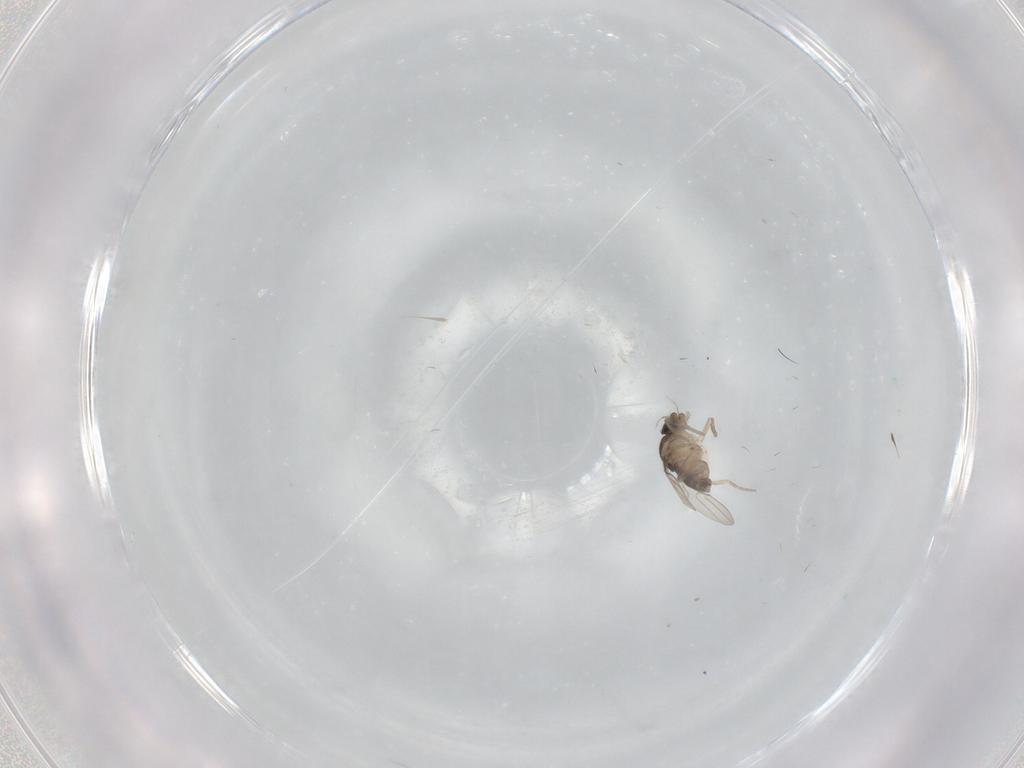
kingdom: Animalia
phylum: Arthropoda
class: Insecta
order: Diptera
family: Phoridae
